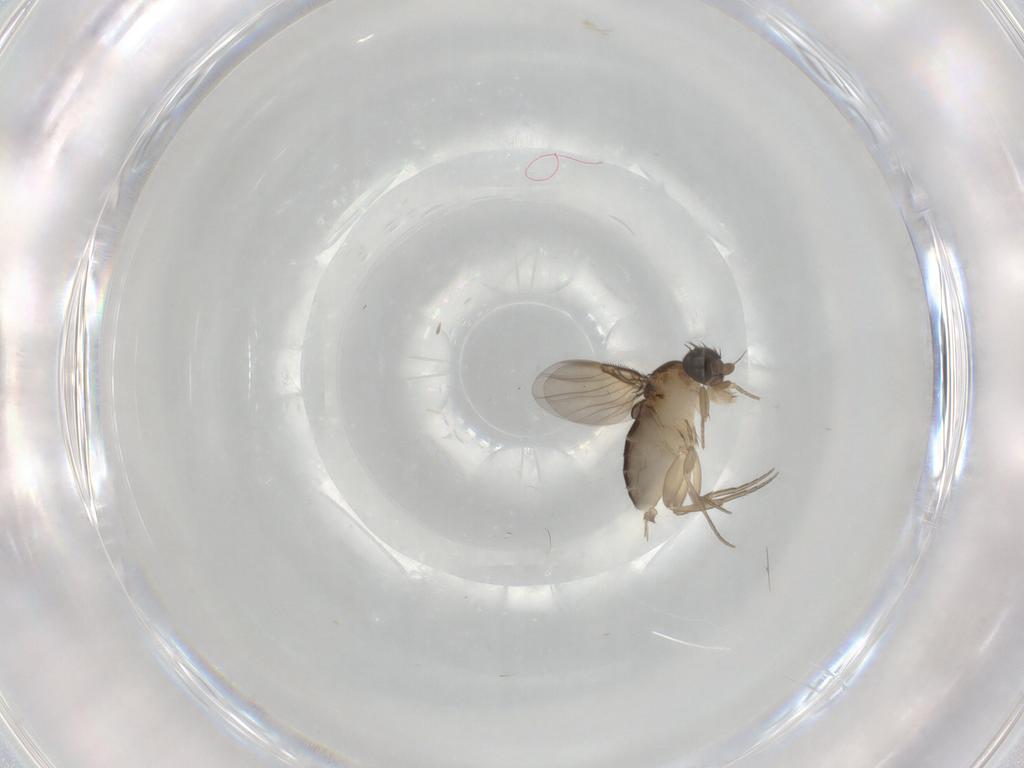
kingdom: Animalia
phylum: Arthropoda
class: Insecta
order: Diptera
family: Phoridae
